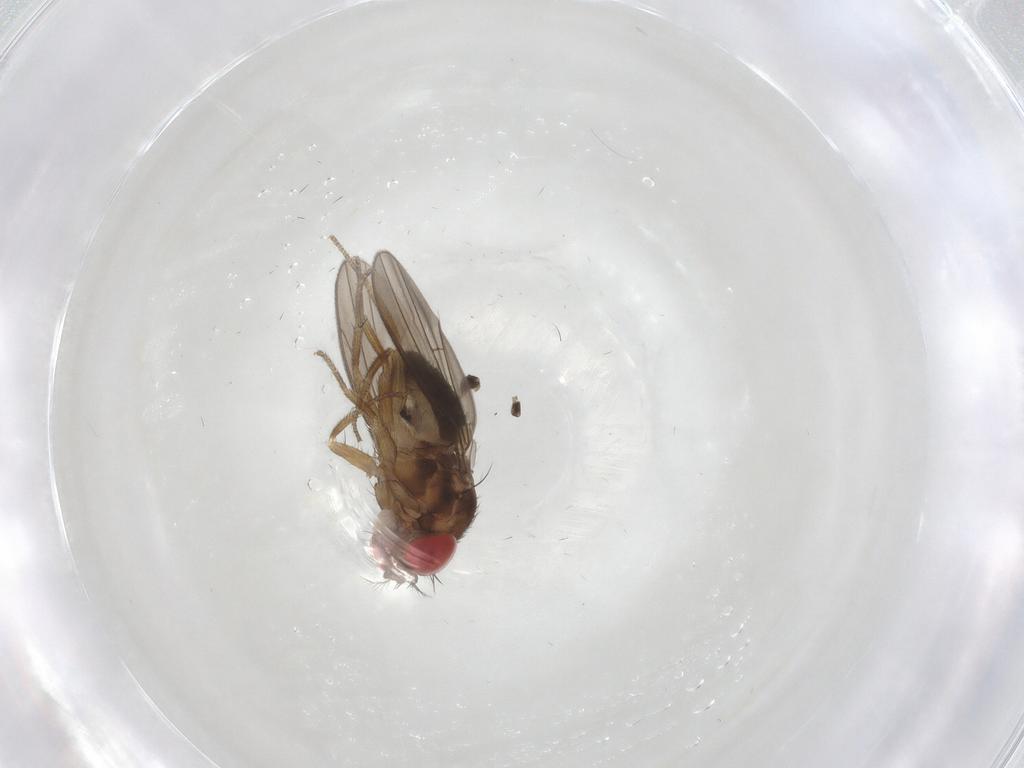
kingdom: Animalia
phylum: Arthropoda
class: Insecta
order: Diptera
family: Drosophilidae
